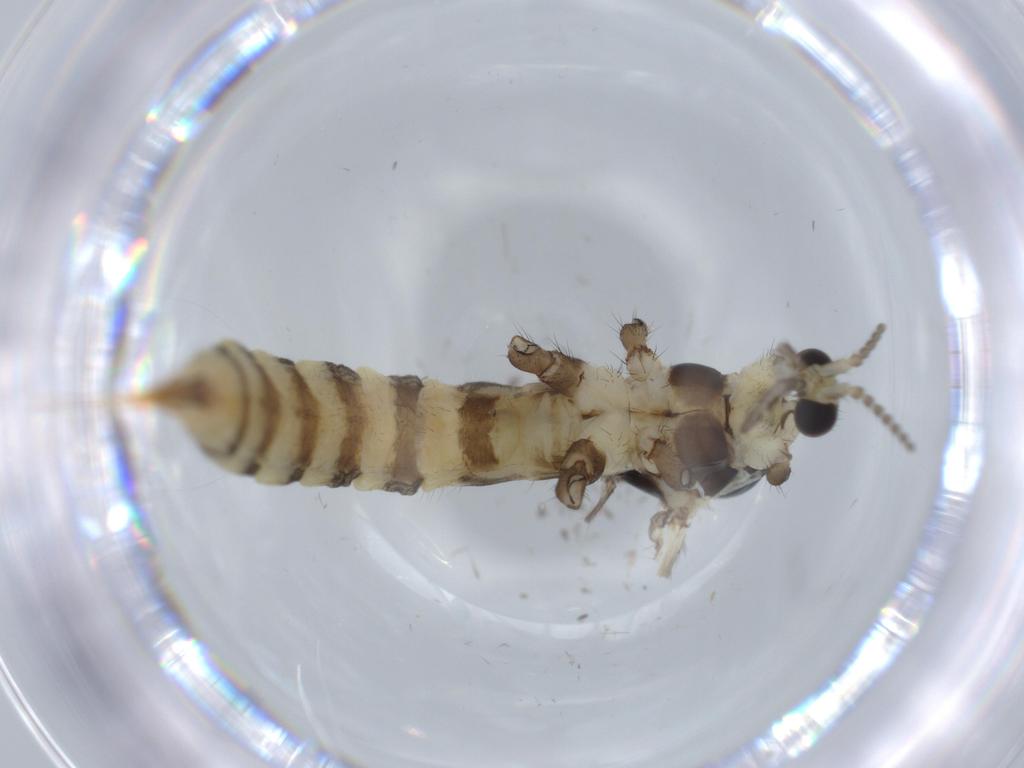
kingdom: Animalia
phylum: Arthropoda
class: Insecta
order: Diptera
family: Limoniidae
